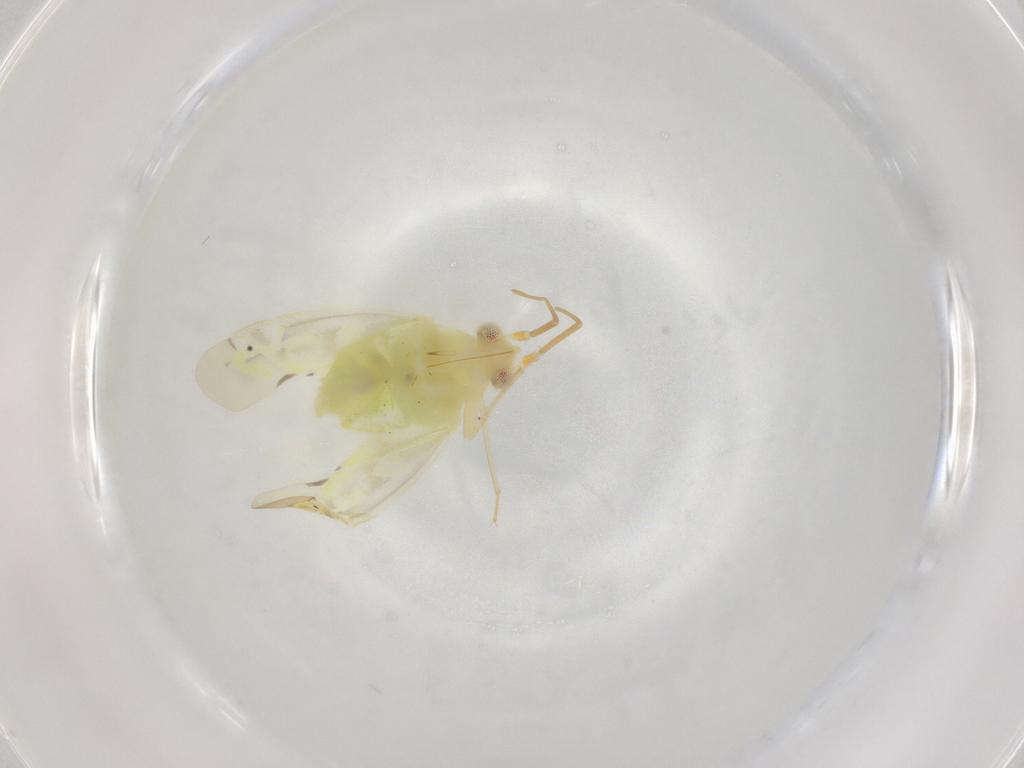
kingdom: Animalia
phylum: Arthropoda
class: Insecta
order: Hemiptera
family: Miridae
